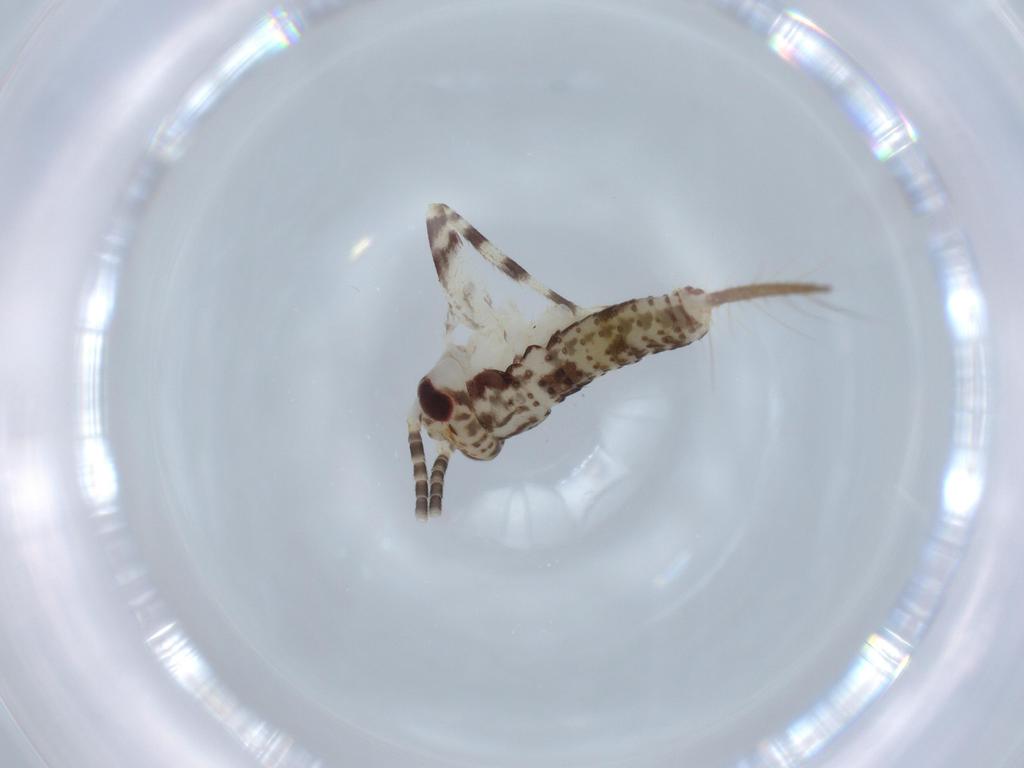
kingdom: Animalia
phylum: Arthropoda
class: Insecta
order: Orthoptera
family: Gryllidae
